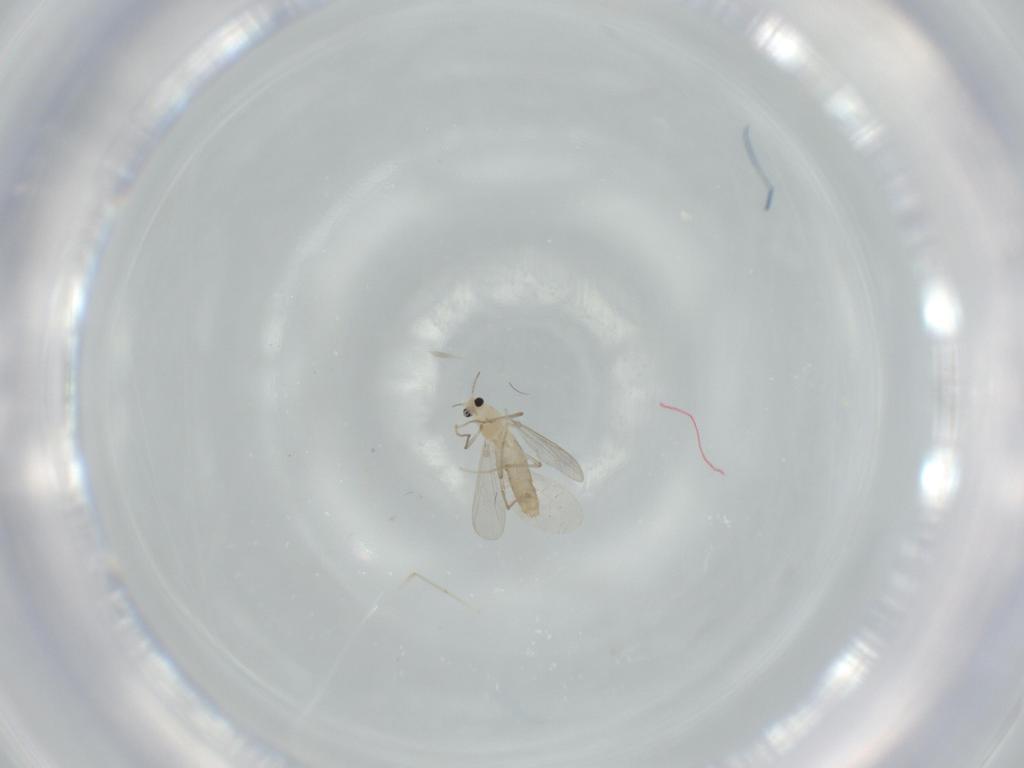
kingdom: Animalia
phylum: Arthropoda
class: Insecta
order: Diptera
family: Chironomidae
